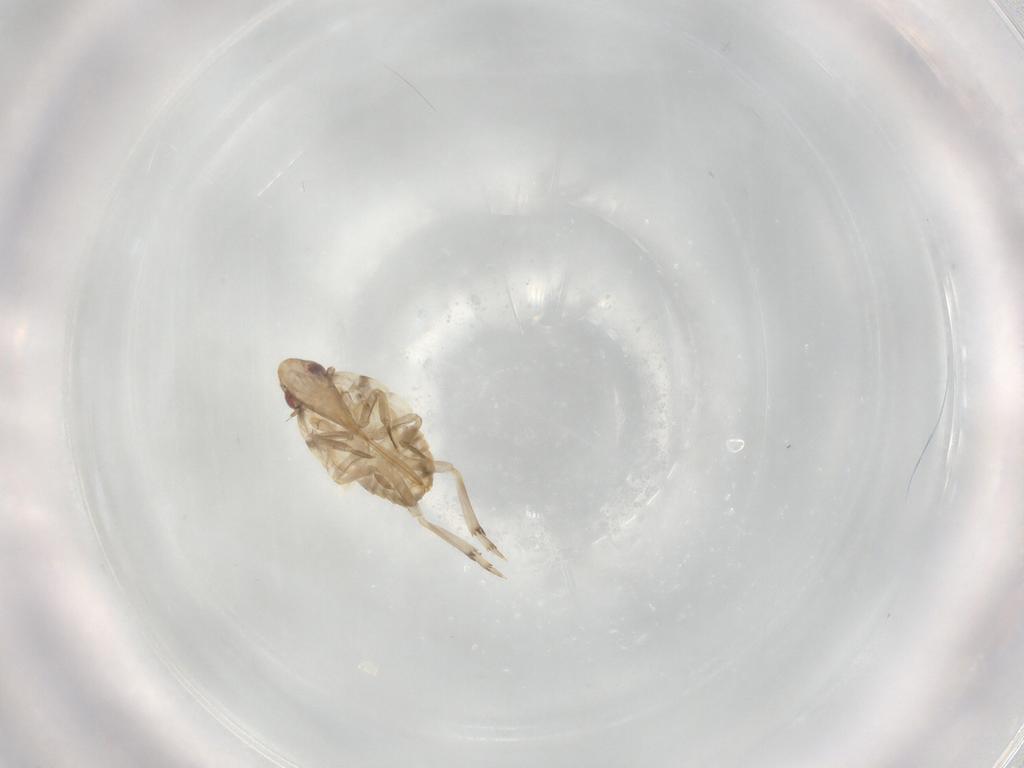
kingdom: Animalia
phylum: Arthropoda
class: Insecta
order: Hemiptera
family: Flatidae
